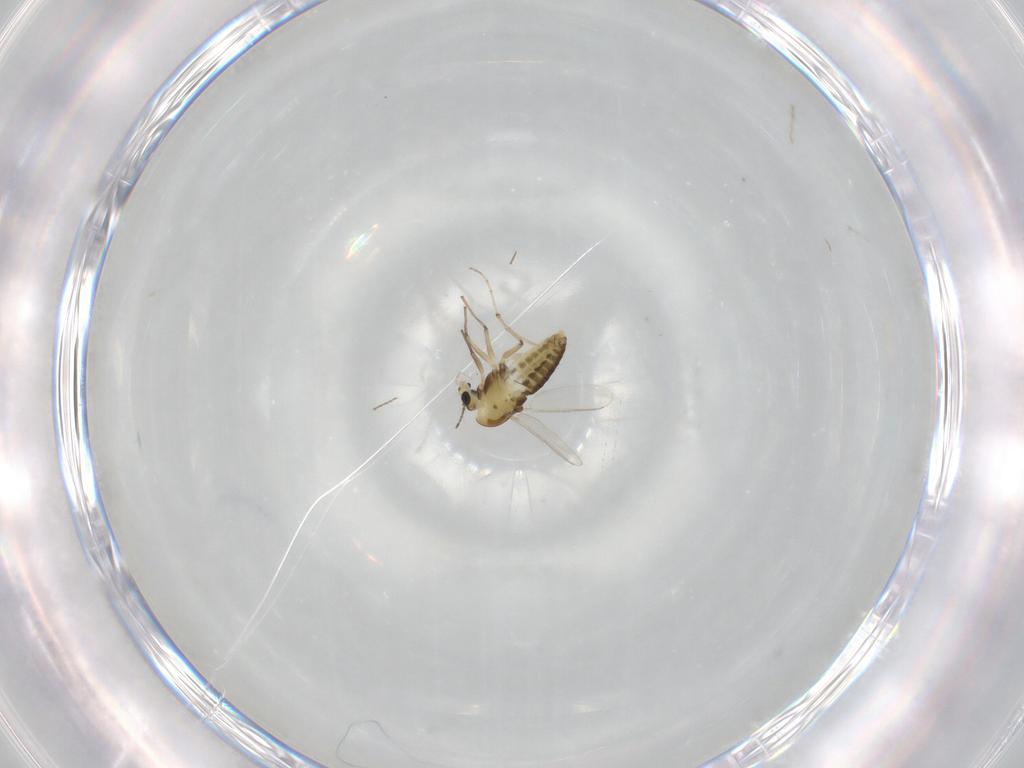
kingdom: Animalia
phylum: Arthropoda
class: Insecta
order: Diptera
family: Chironomidae
